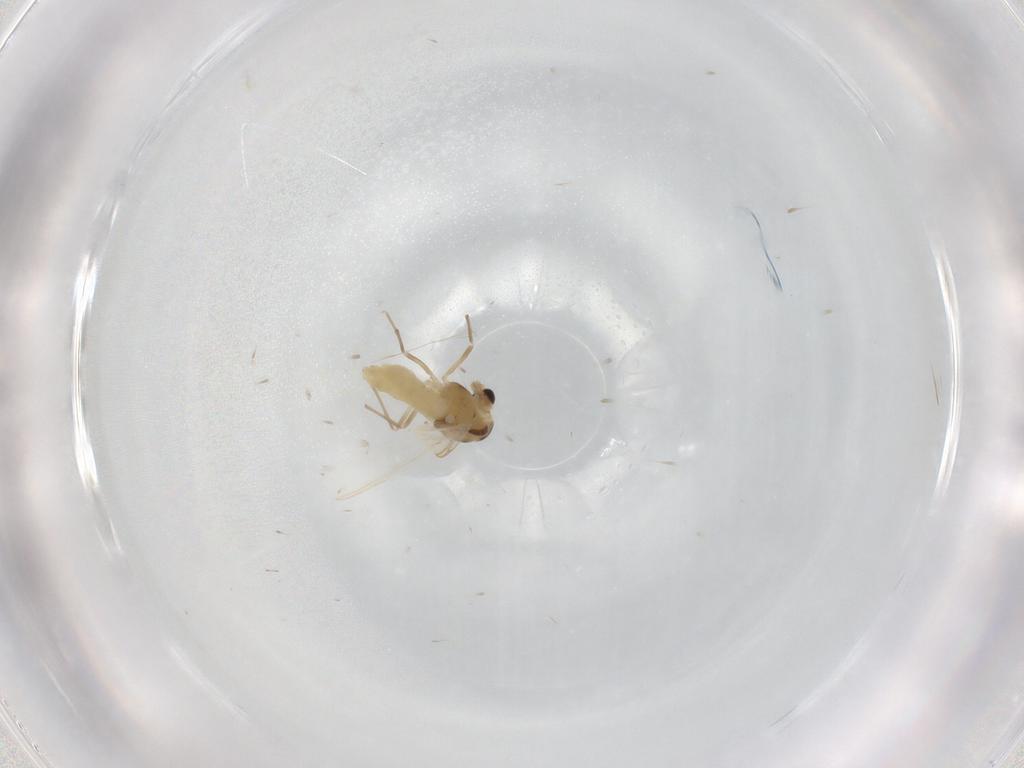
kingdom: Animalia
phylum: Arthropoda
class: Insecta
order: Diptera
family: Chironomidae
